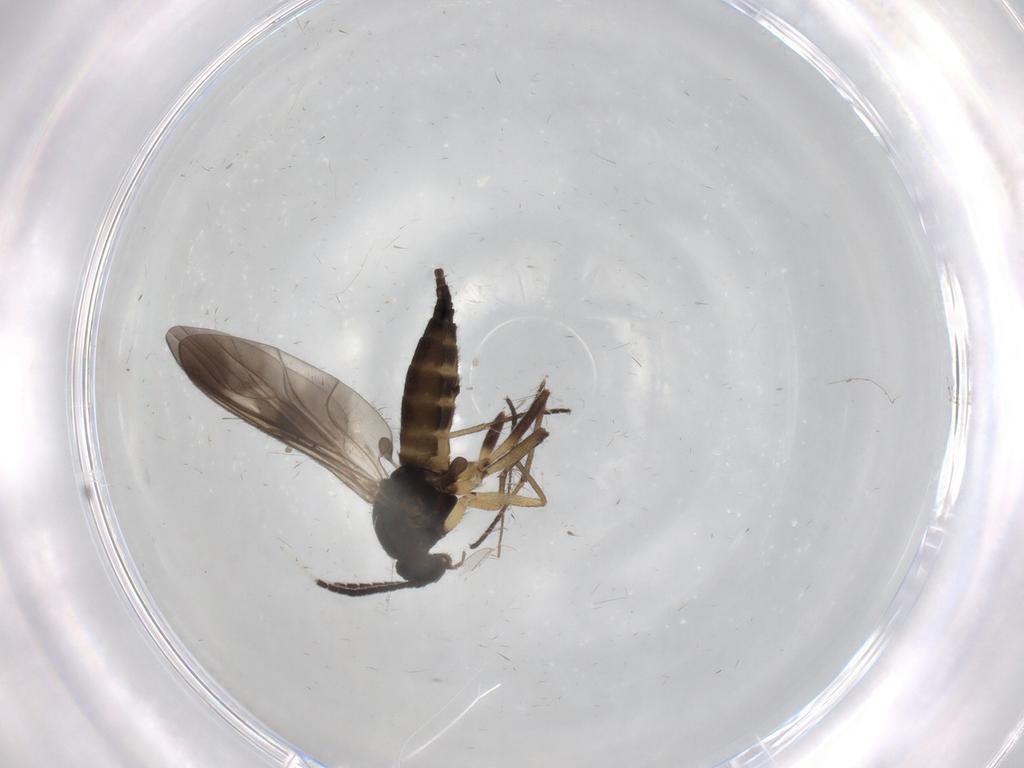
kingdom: Animalia
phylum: Arthropoda
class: Insecta
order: Diptera
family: Sciaridae
